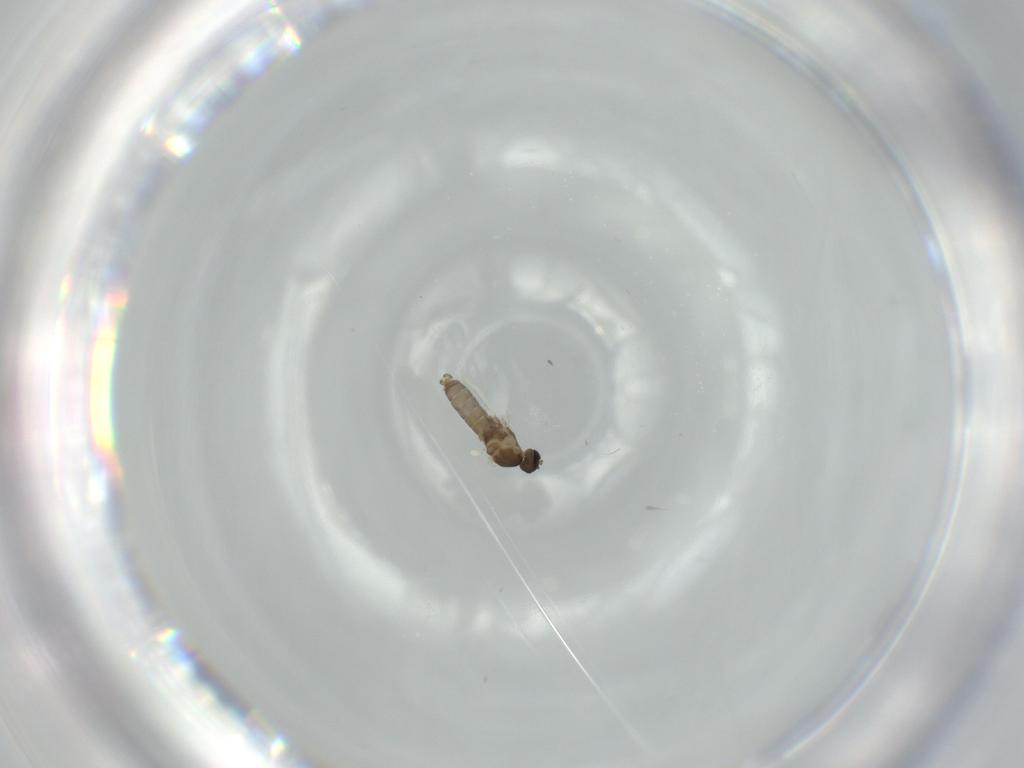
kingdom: Animalia
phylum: Arthropoda
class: Insecta
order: Diptera
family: Cecidomyiidae
